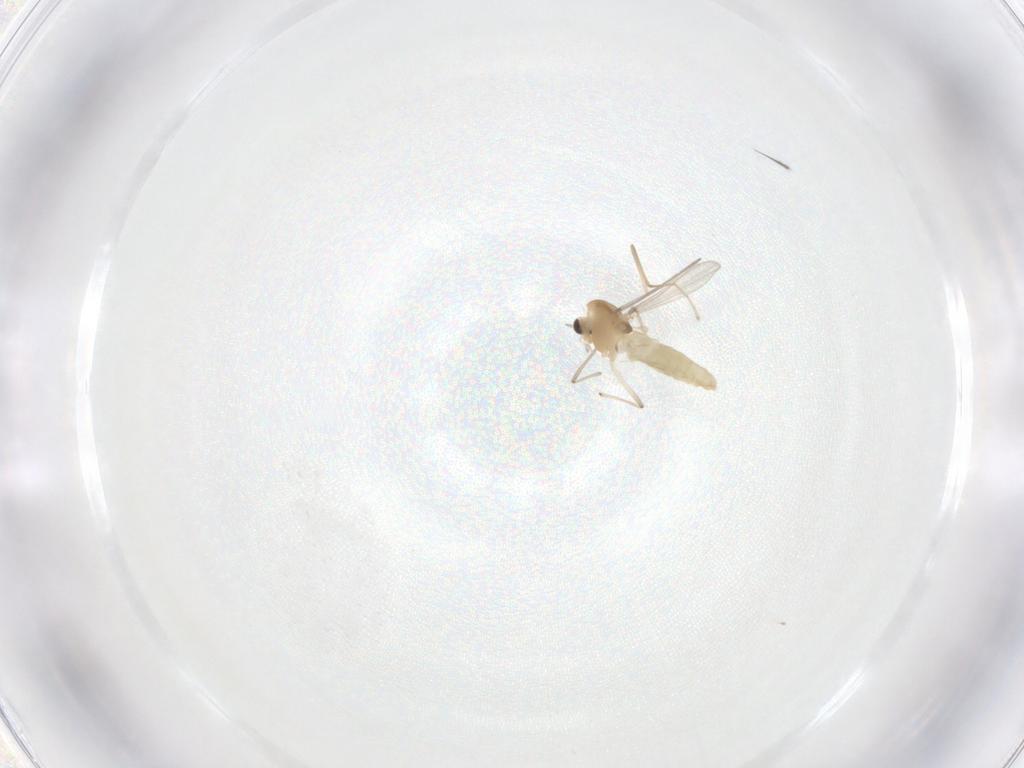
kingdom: Animalia
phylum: Arthropoda
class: Insecta
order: Diptera
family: Chironomidae
